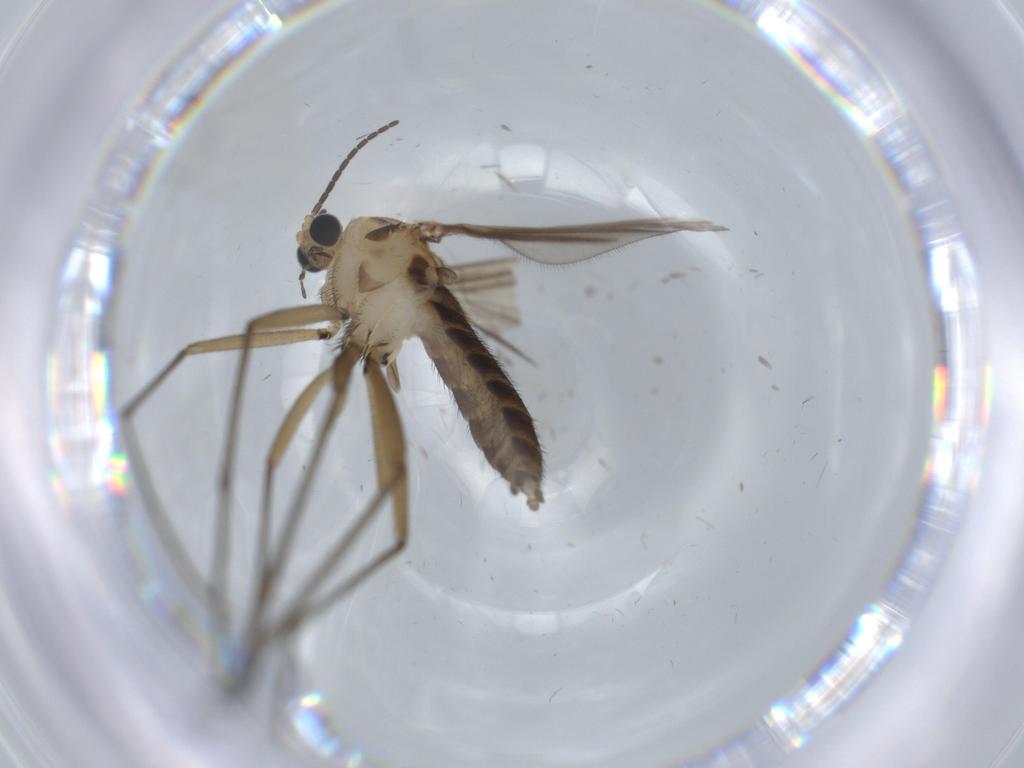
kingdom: Animalia
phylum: Arthropoda
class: Insecta
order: Diptera
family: Sciaridae
